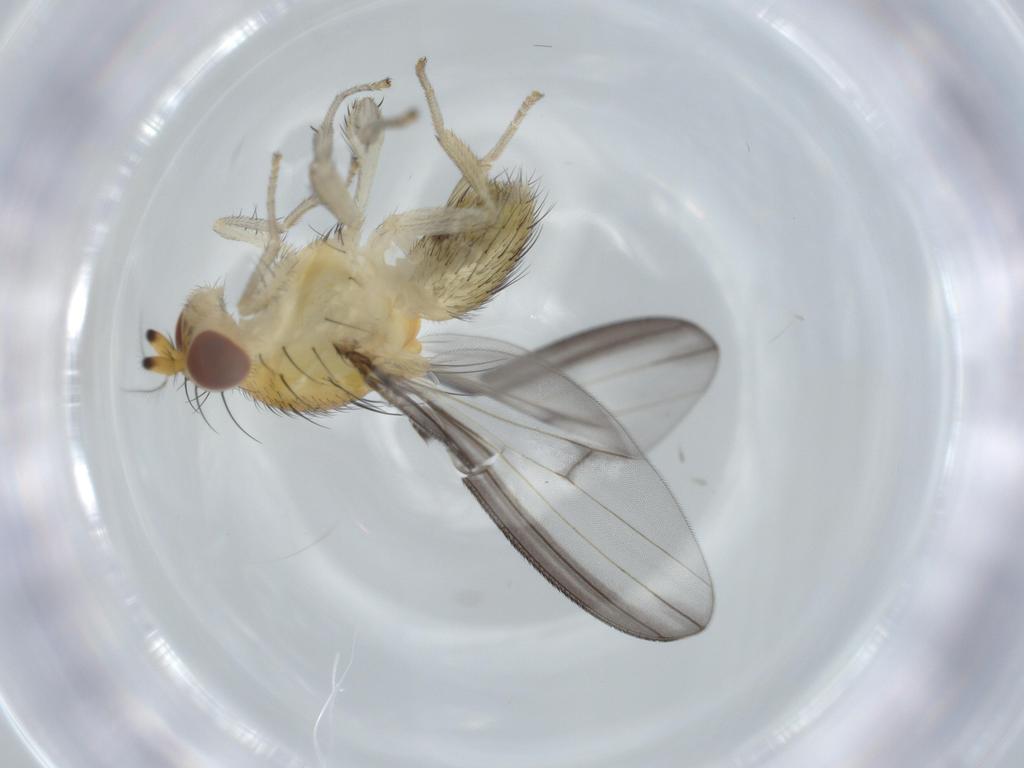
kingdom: Animalia
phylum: Arthropoda
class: Insecta
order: Diptera
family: Lauxaniidae
